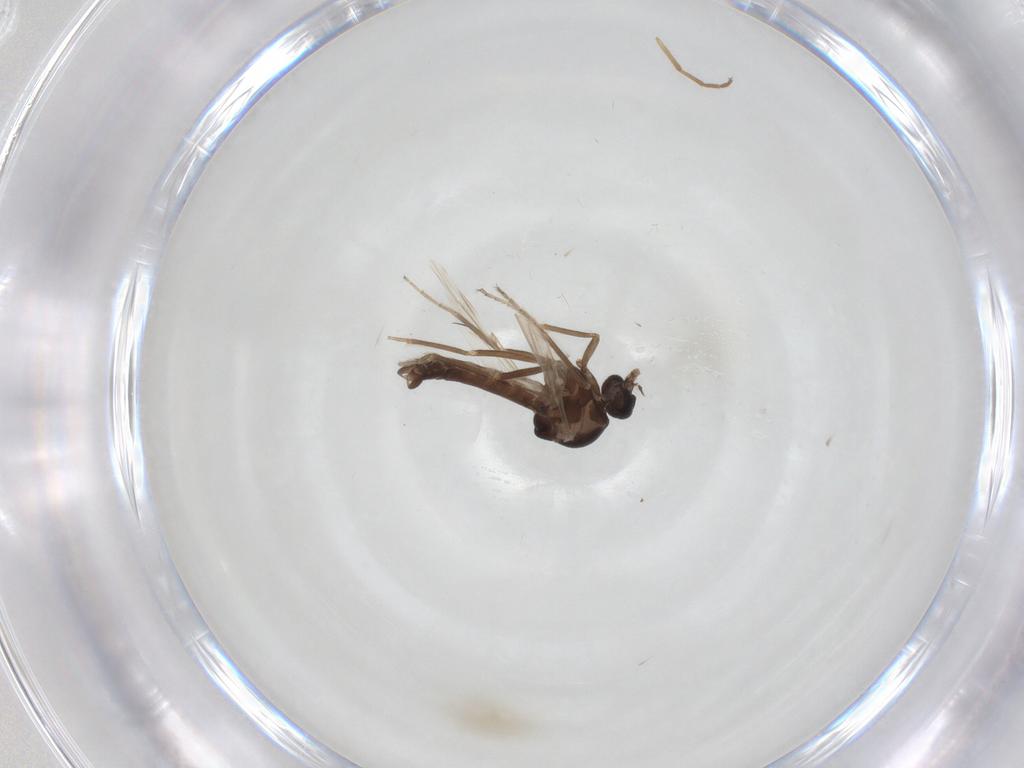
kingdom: Animalia
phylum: Arthropoda
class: Insecta
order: Diptera
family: Ceratopogonidae
